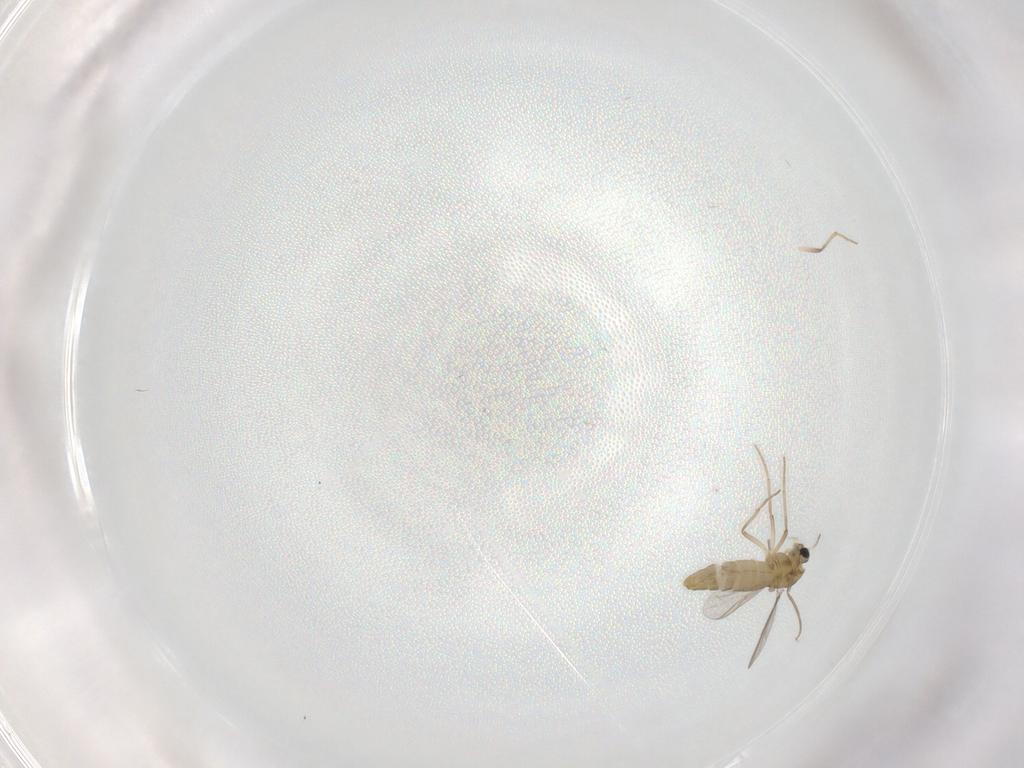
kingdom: Animalia
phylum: Arthropoda
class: Insecta
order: Diptera
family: Chironomidae
